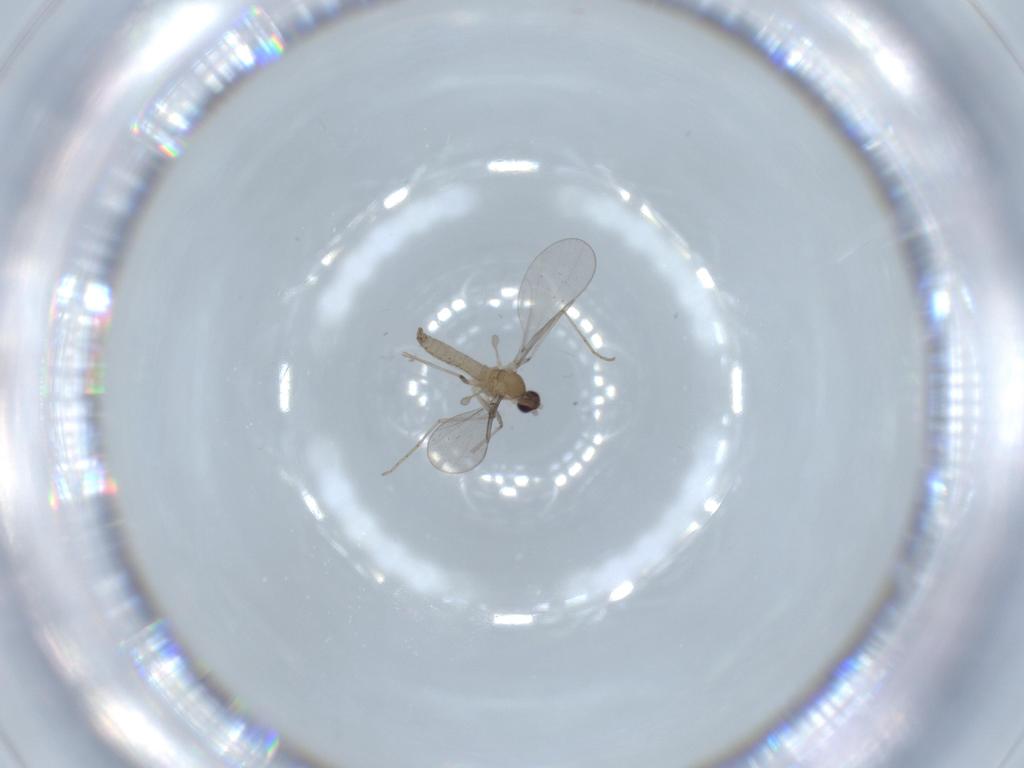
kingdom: Animalia
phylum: Arthropoda
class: Insecta
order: Diptera
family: Cecidomyiidae
